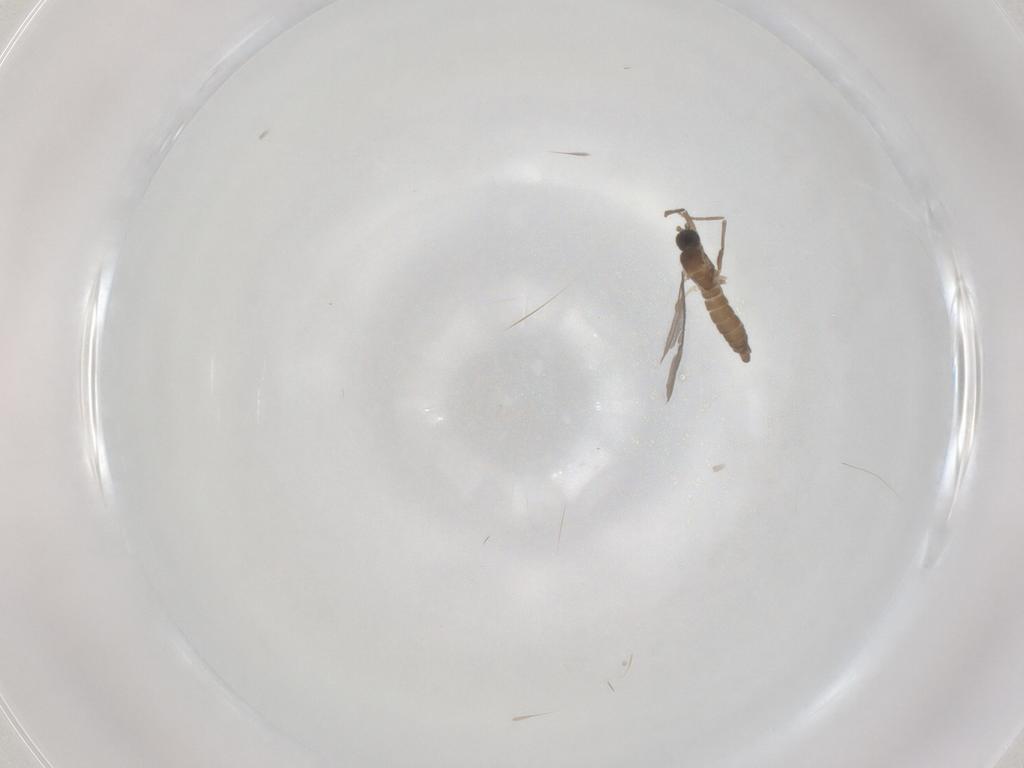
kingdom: Animalia
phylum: Arthropoda
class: Insecta
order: Diptera
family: Sciaridae
